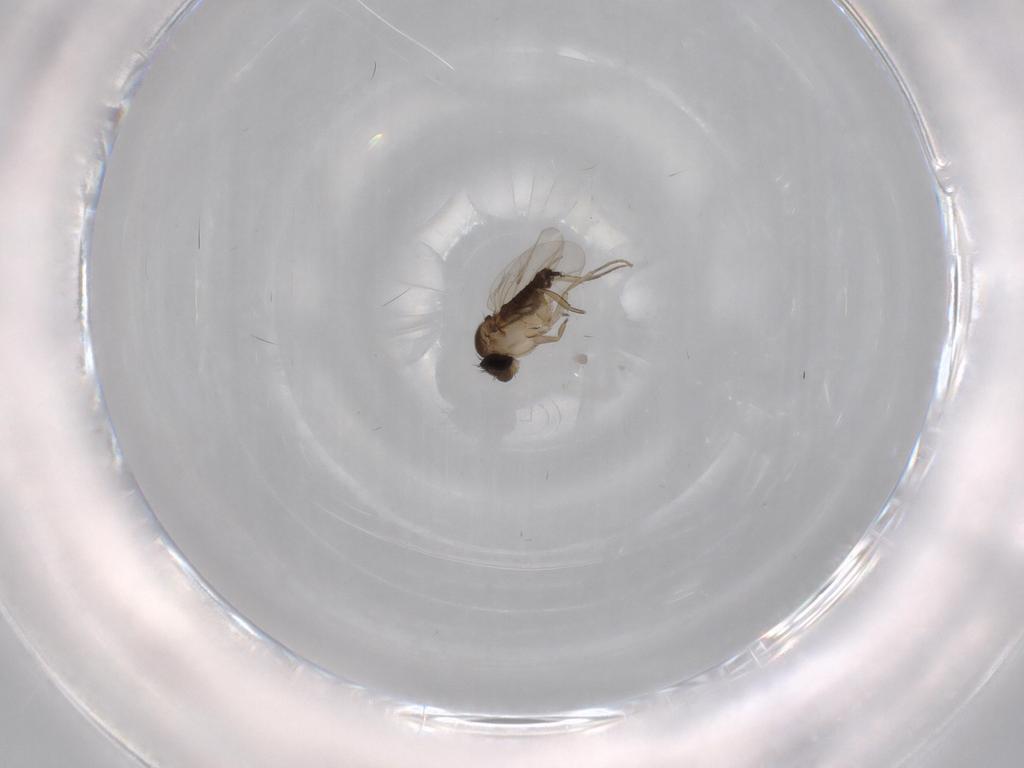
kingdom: Animalia
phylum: Arthropoda
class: Insecta
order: Diptera
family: Phoridae
